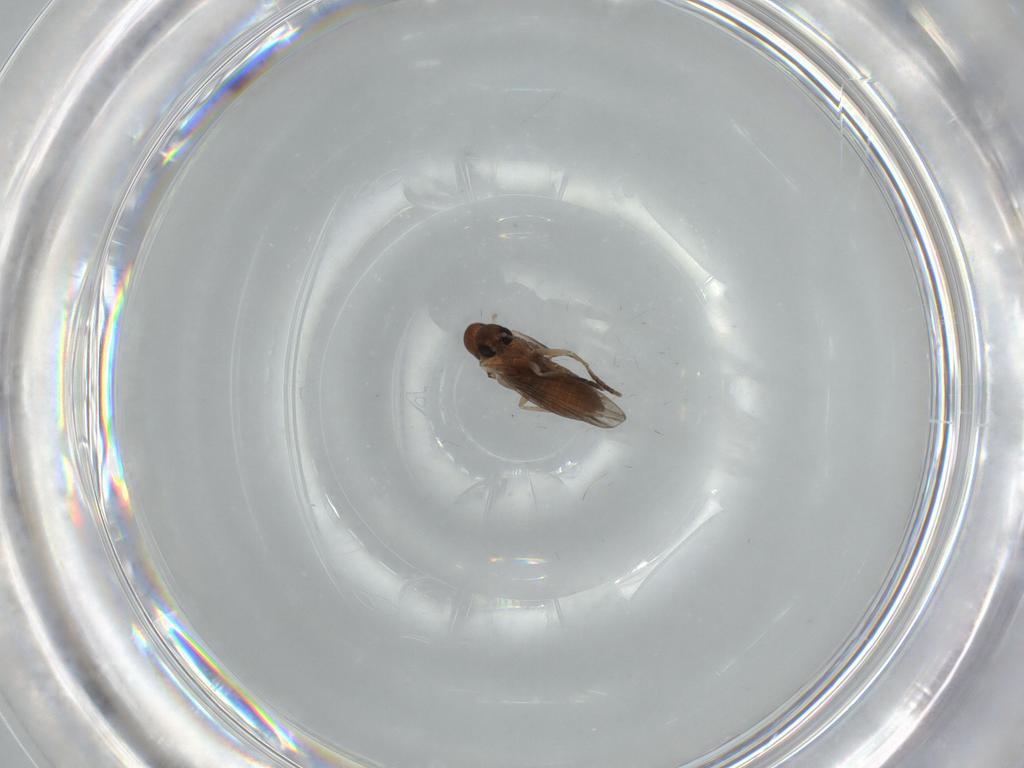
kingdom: Animalia
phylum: Arthropoda
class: Insecta
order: Diptera
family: Psychodidae
